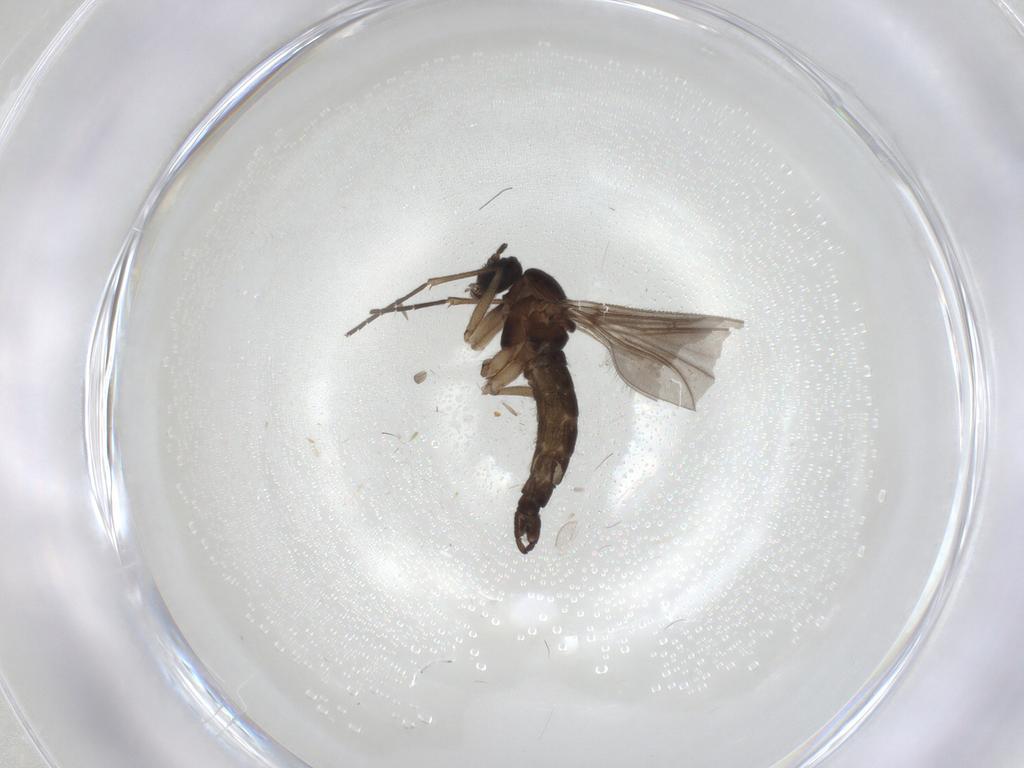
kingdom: Animalia
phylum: Arthropoda
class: Insecta
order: Diptera
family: Sciaridae
